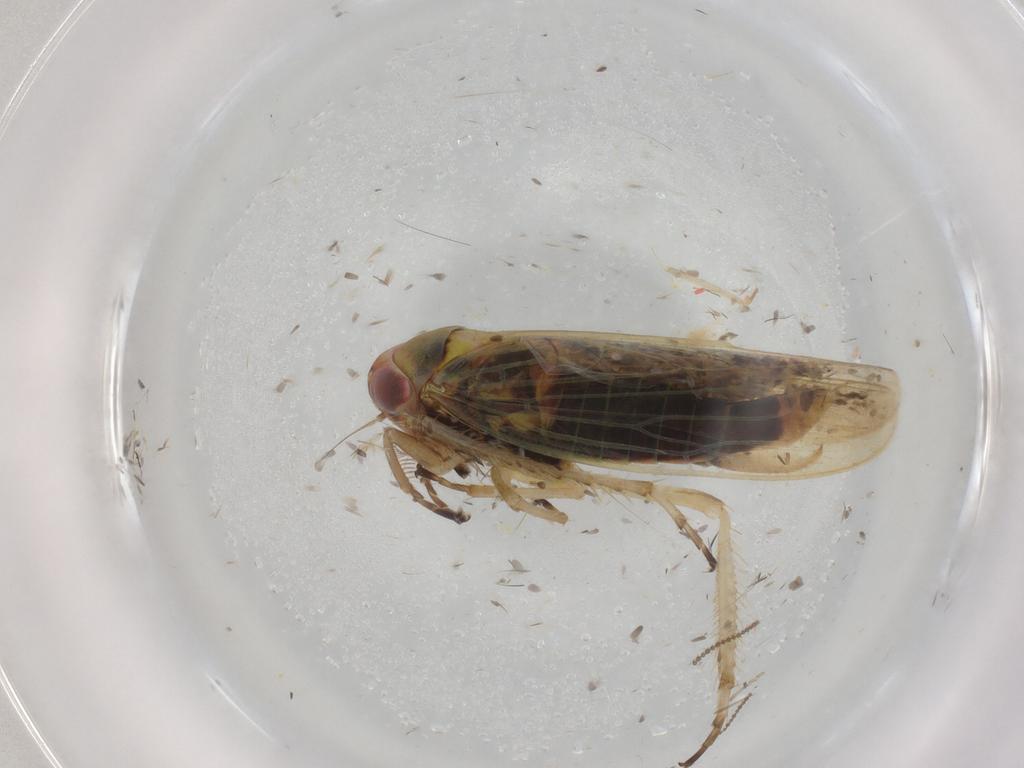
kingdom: Animalia
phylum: Arthropoda
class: Insecta
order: Hemiptera
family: Cicadellidae
